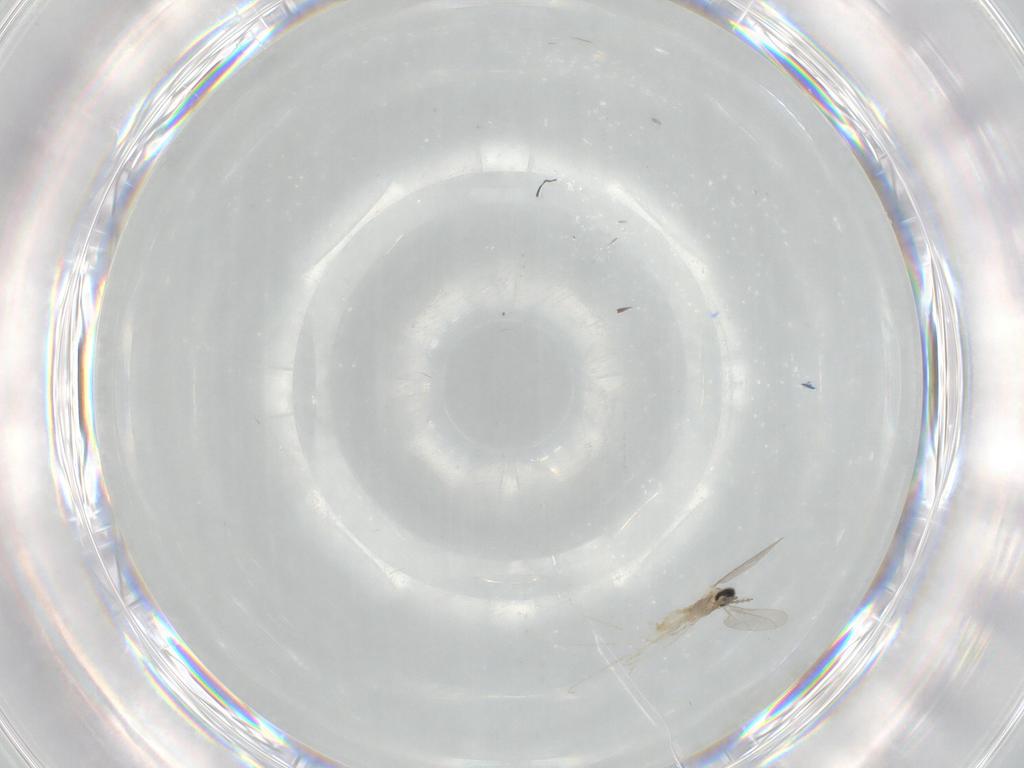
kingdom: Animalia
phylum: Arthropoda
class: Insecta
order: Diptera
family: Cecidomyiidae
